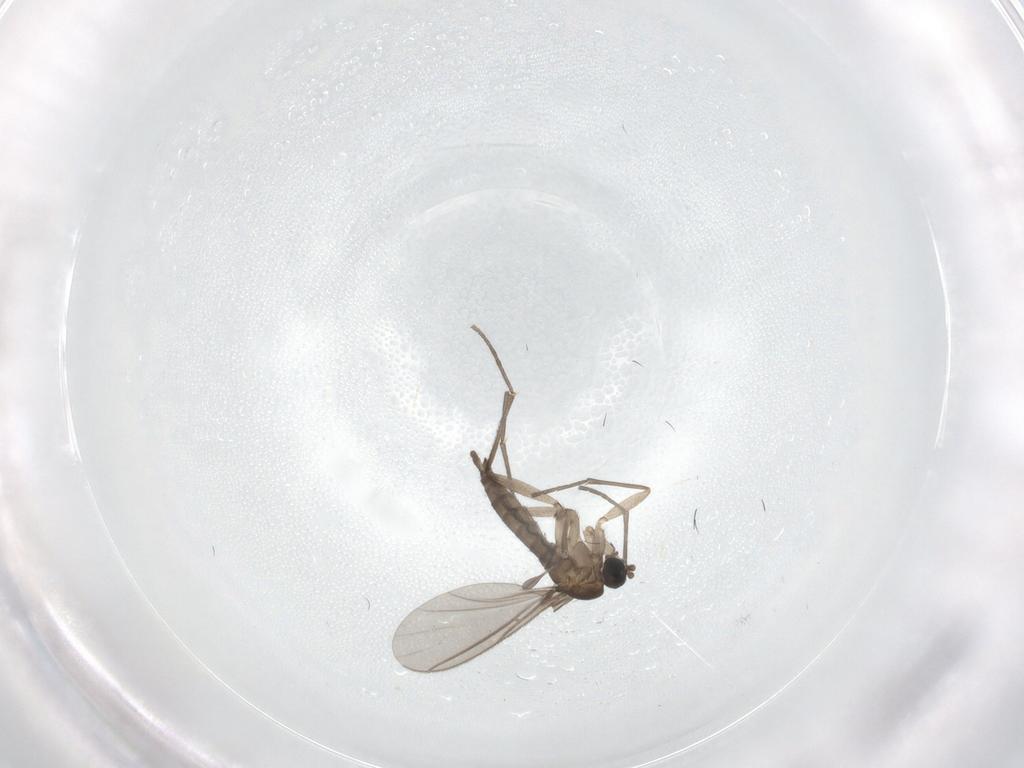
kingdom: Animalia
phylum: Arthropoda
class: Insecta
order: Diptera
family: Sciaridae
